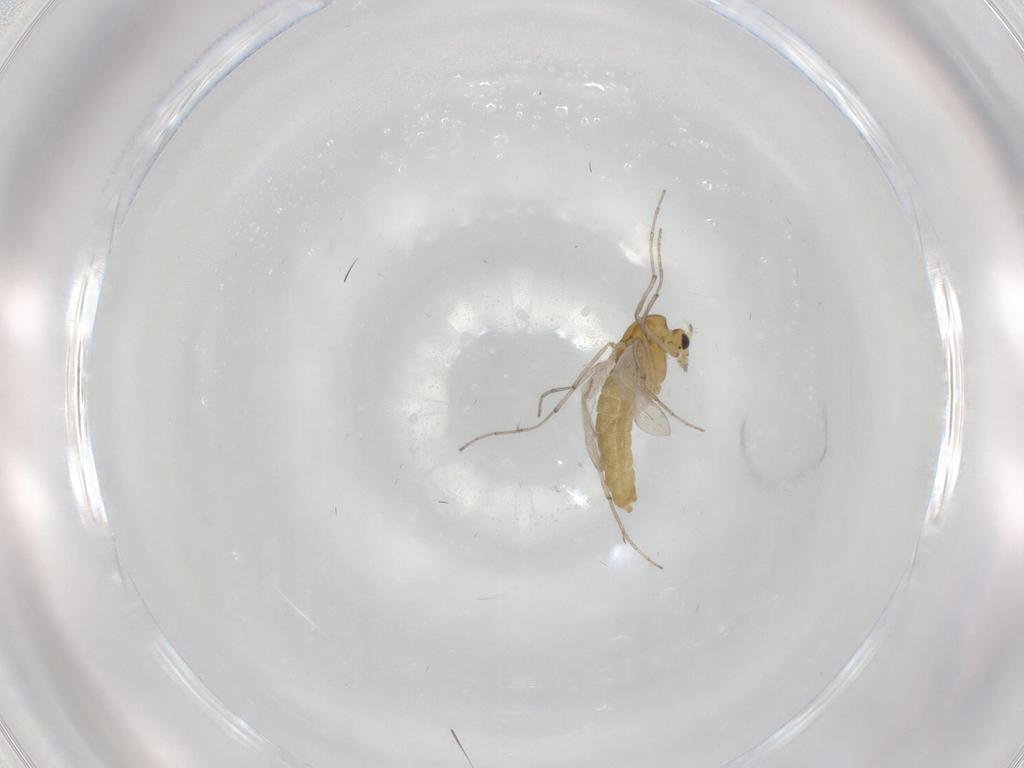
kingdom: Animalia
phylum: Arthropoda
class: Insecta
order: Diptera
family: Chironomidae
